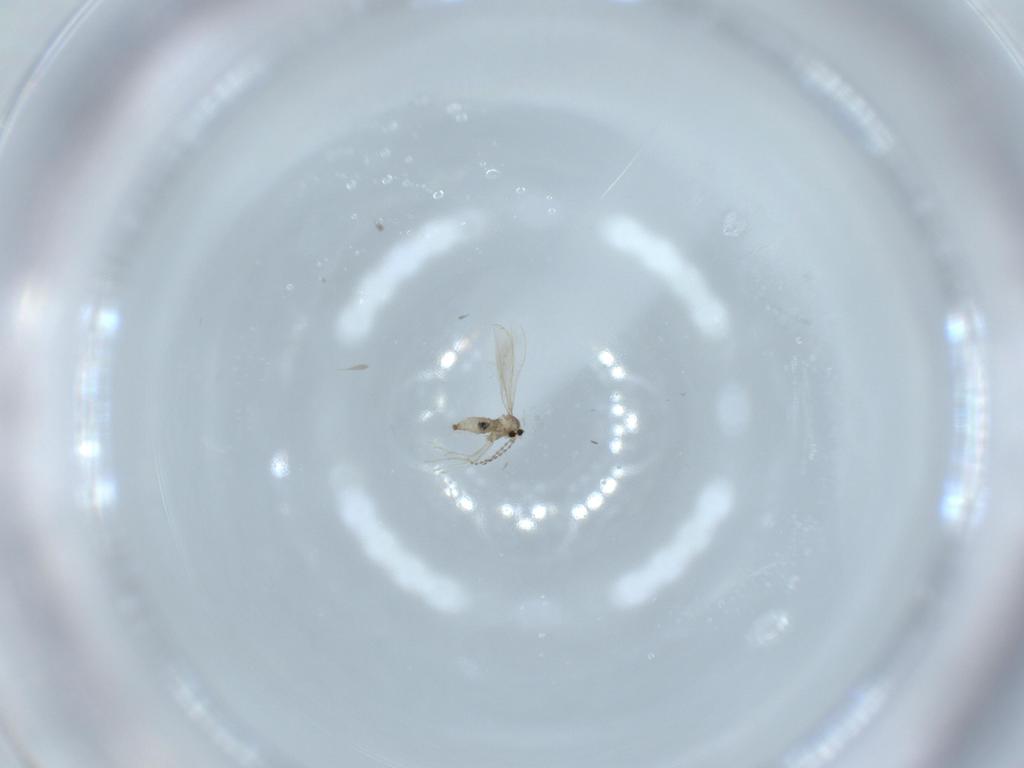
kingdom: Animalia
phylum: Arthropoda
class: Insecta
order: Diptera
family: Cecidomyiidae
